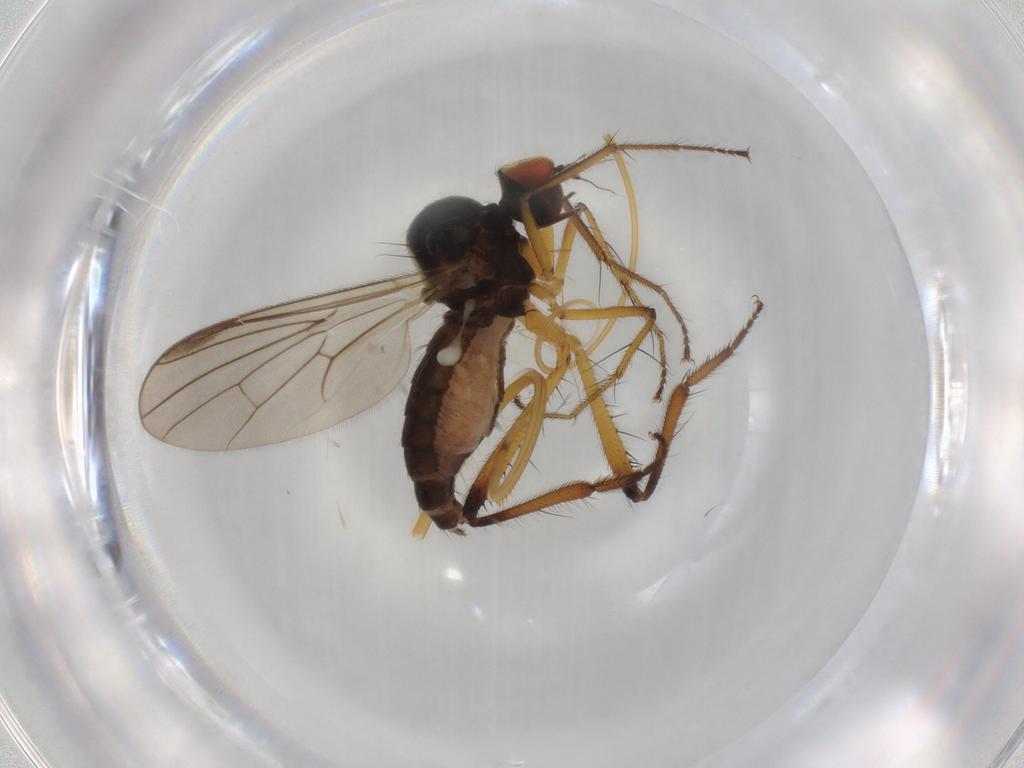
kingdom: Animalia
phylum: Arthropoda
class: Insecta
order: Diptera
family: Hybotidae
